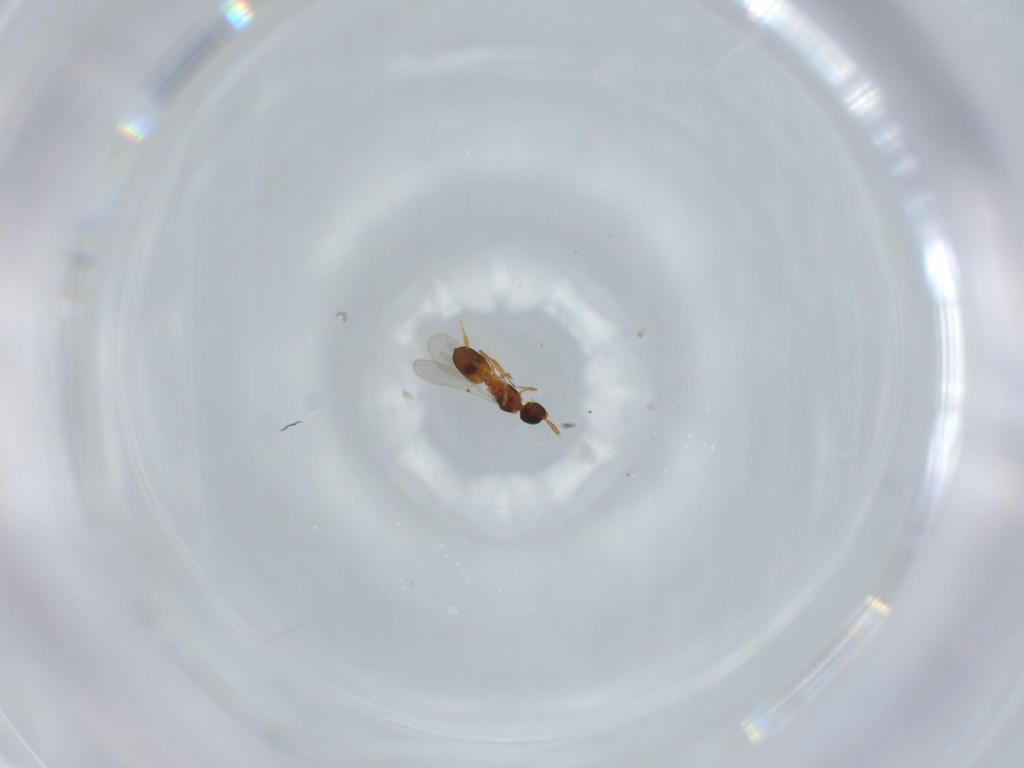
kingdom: Animalia
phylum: Arthropoda
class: Insecta
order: Hymenoptera
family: Diapriidae
